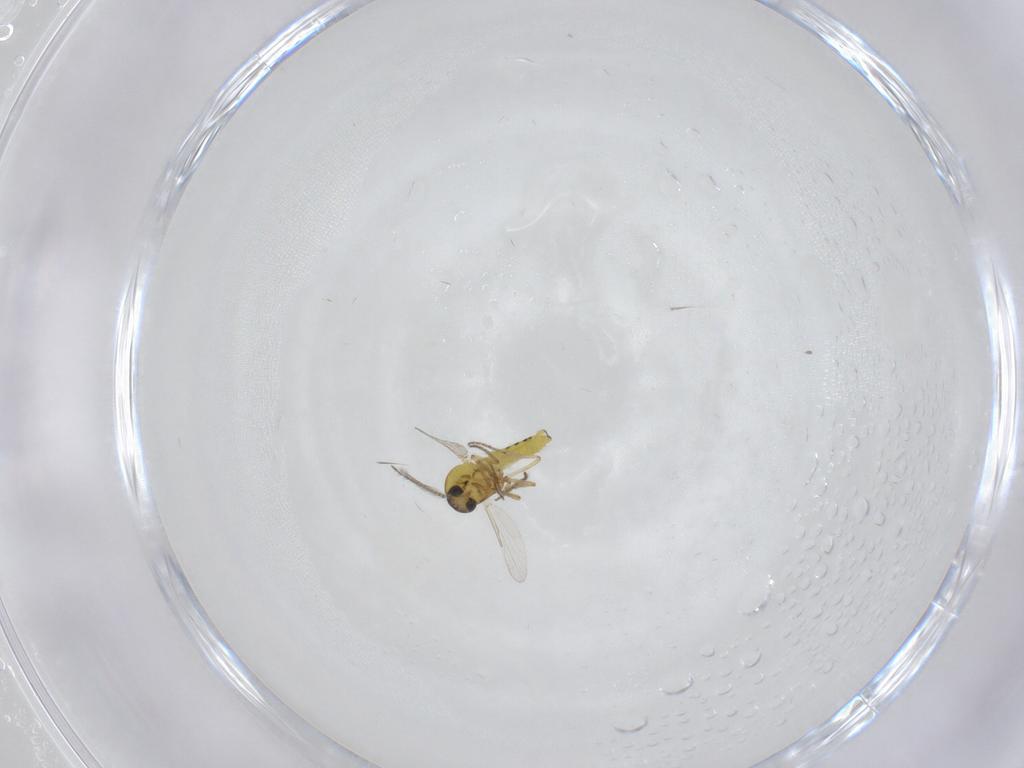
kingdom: Animalia
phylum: Arthropoda
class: Insecta
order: Diptera
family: Ceratopogonidae
